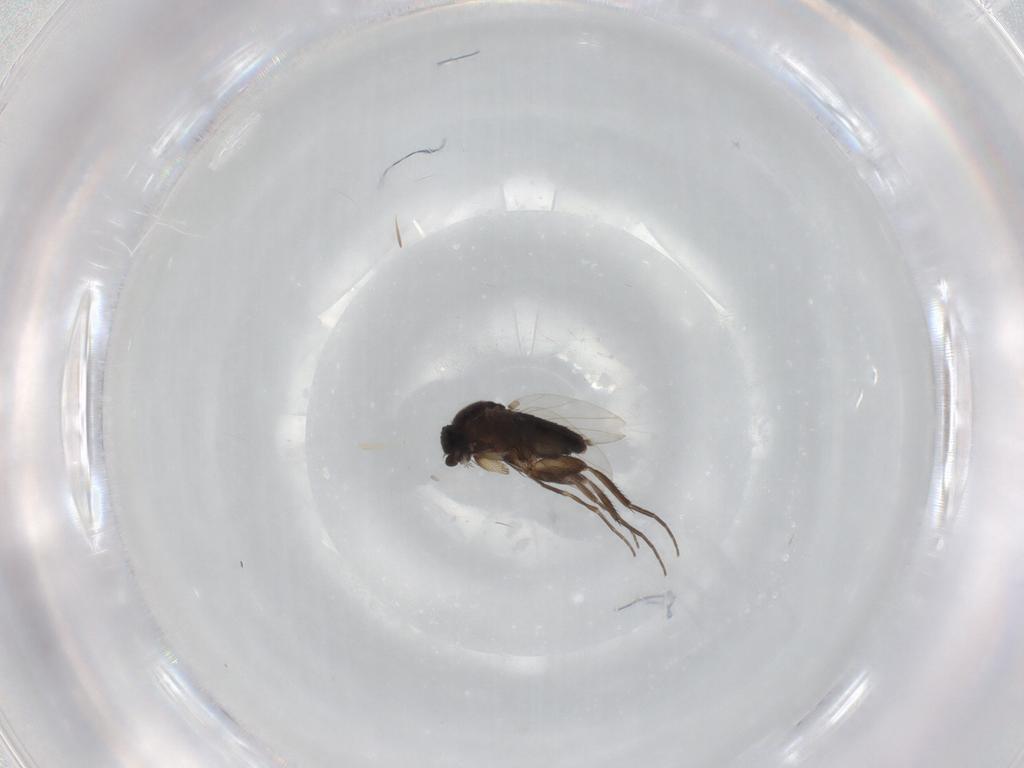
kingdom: Animalia
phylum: Arthropoda
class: Insecta
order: Diptera
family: Phoridae
